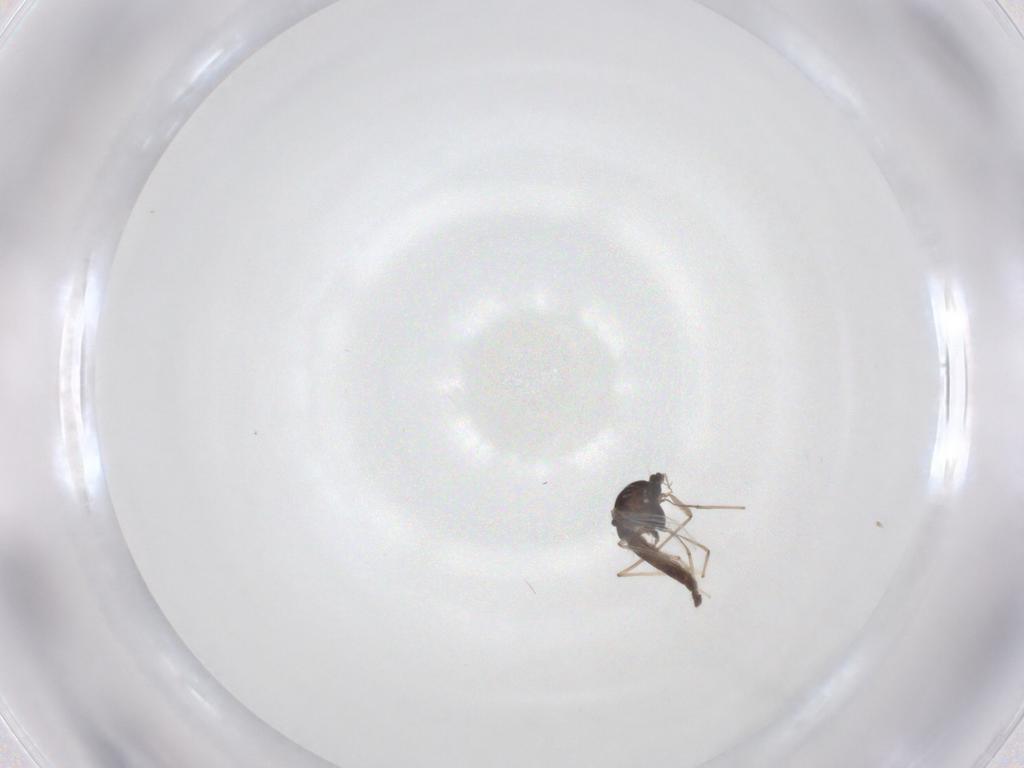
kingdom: Animalia
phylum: Arthropoda
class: Insecta
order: Diptera
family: Chironomidae
